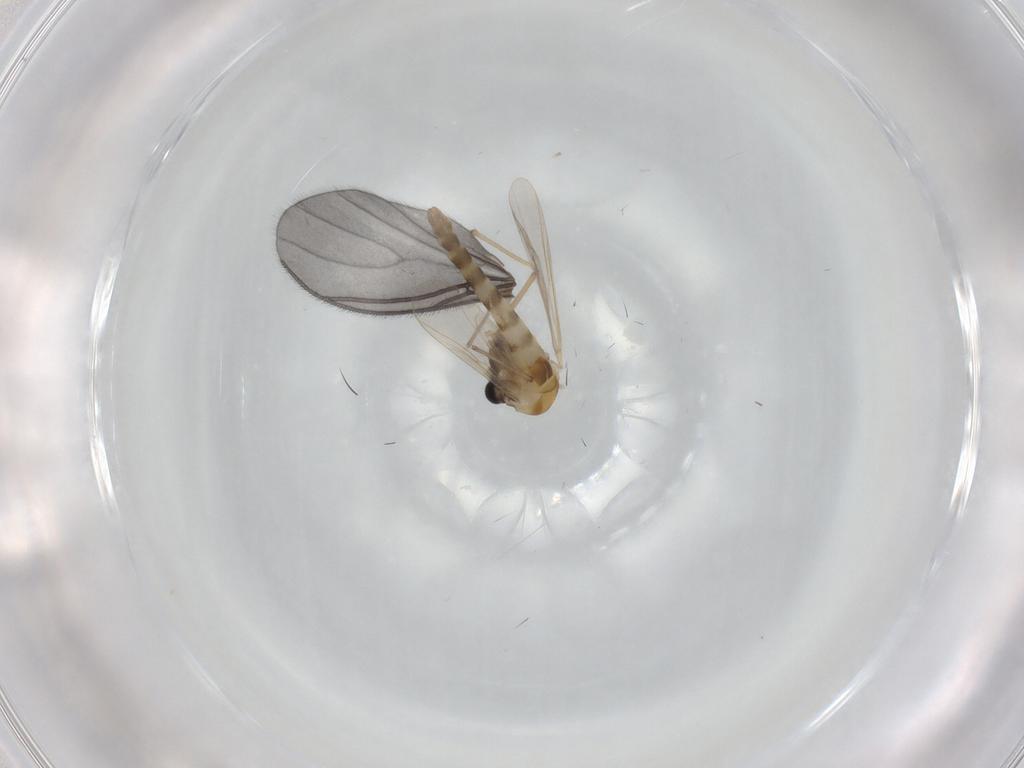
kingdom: Animalia
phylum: Arthropoda
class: Insecta
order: Diptera
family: Chironomidae
